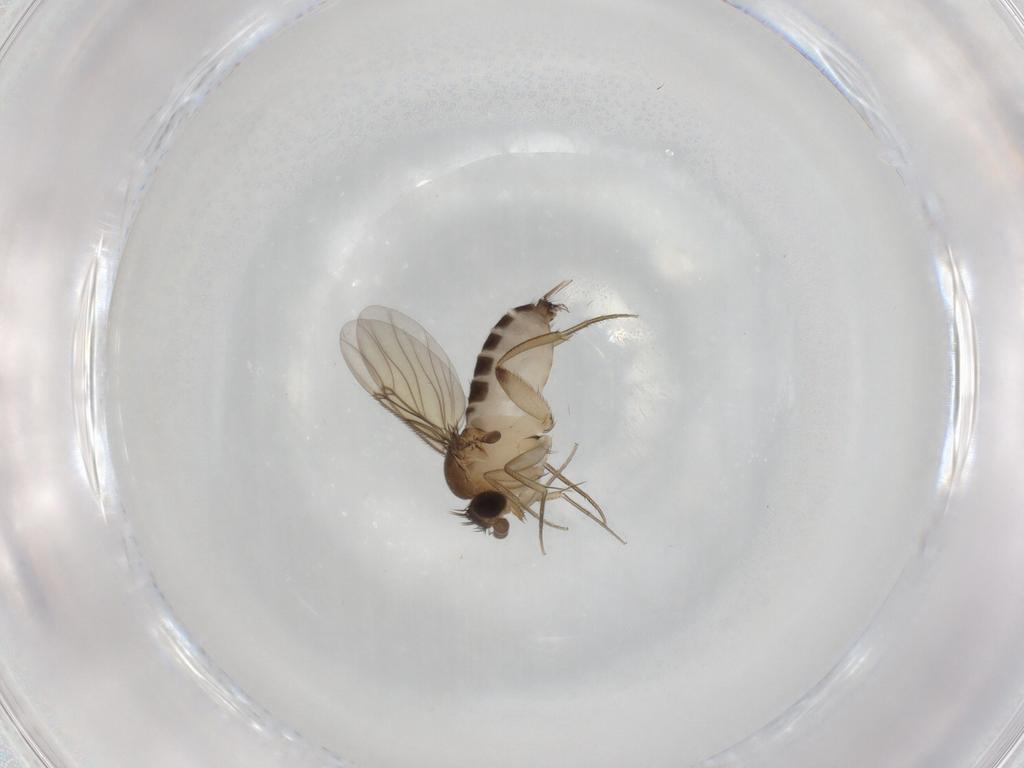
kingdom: Animalia
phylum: Arthropoda
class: Insecta
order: Diptera
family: Phoridae
